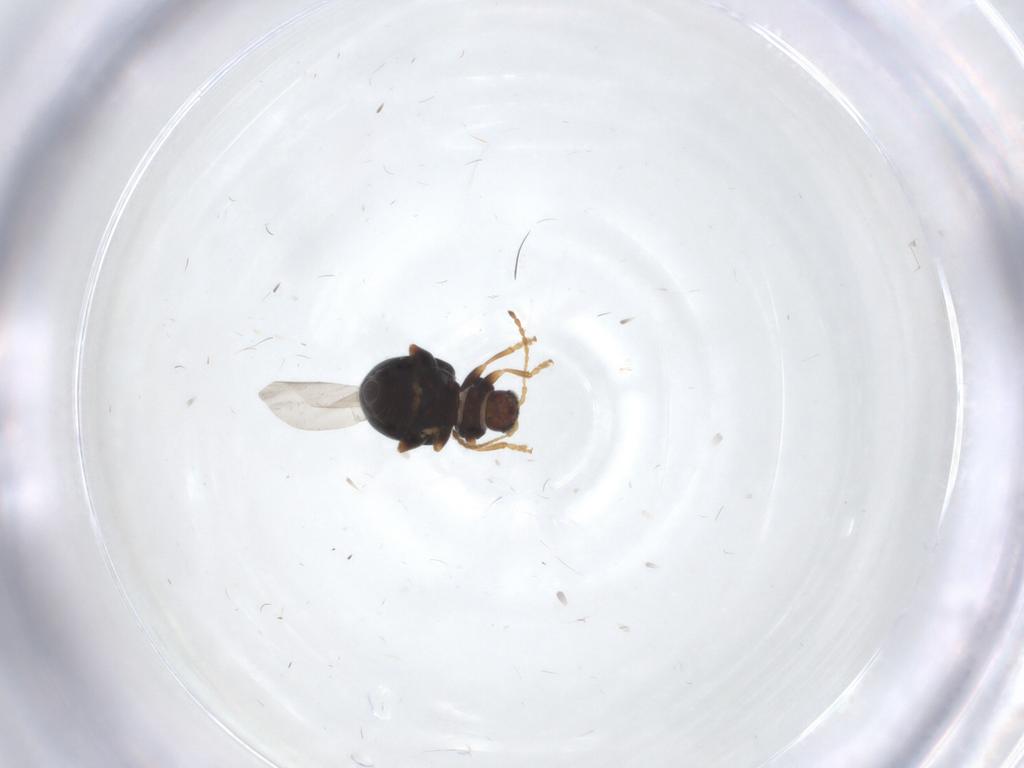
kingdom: Animalia
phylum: Arthropoda
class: Insecta
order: Coleoptera
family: Chrysomelidae
